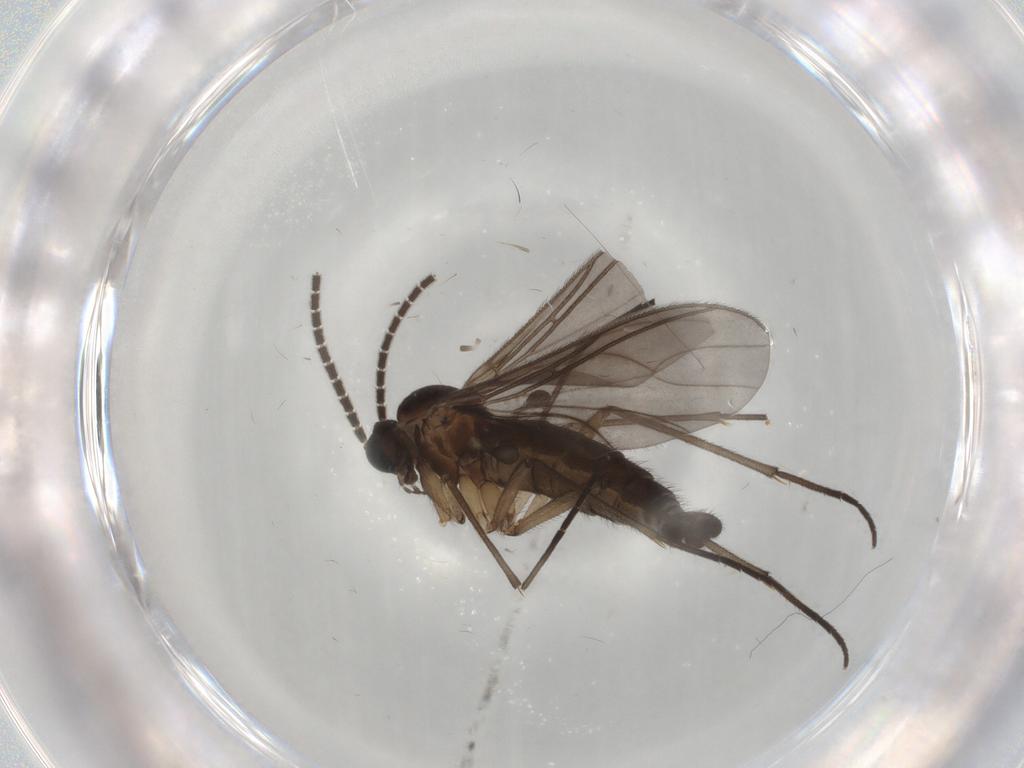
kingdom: Animalia
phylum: Arthropoda
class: Insecta
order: Diptera
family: Sciaridae
